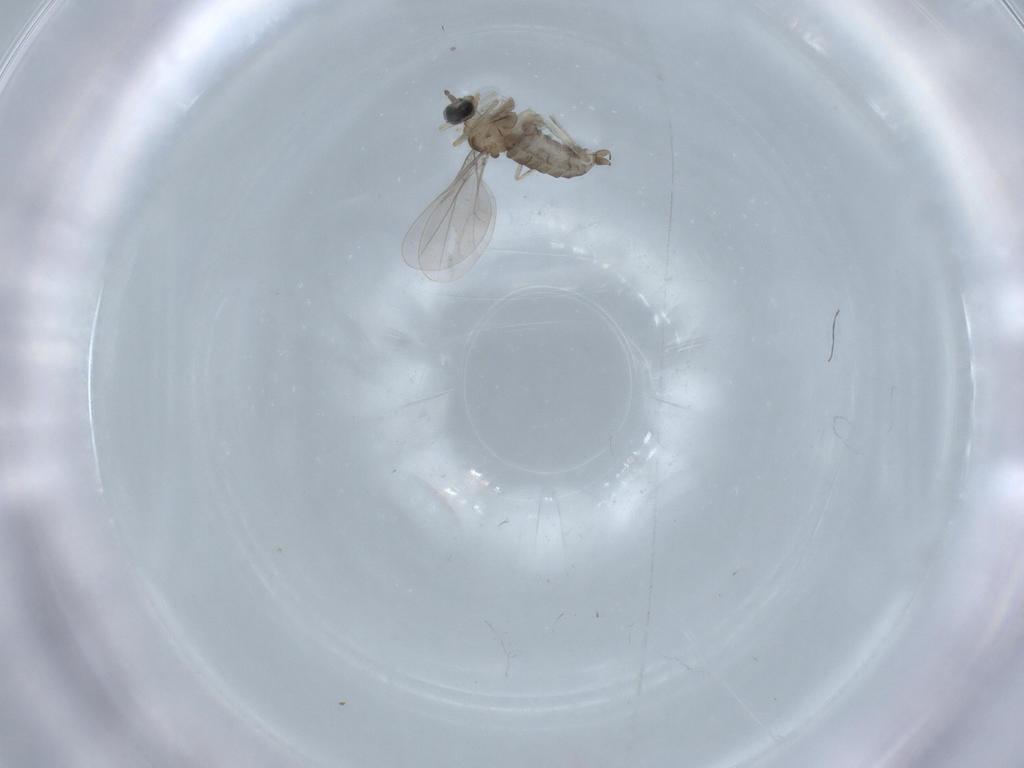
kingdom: Animalia
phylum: Arthropoda
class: Insecta
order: Diptera
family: Cecidomyiidae
